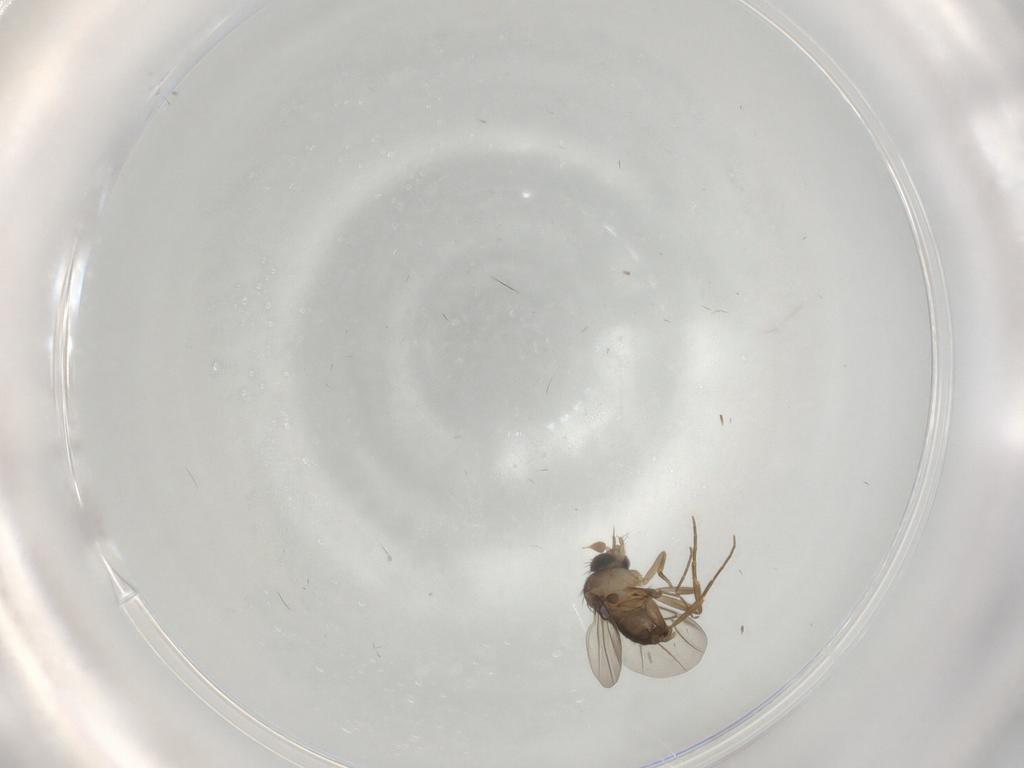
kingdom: Animalia
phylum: Arthropoda
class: Insecta
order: Diptera
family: Phoridae
